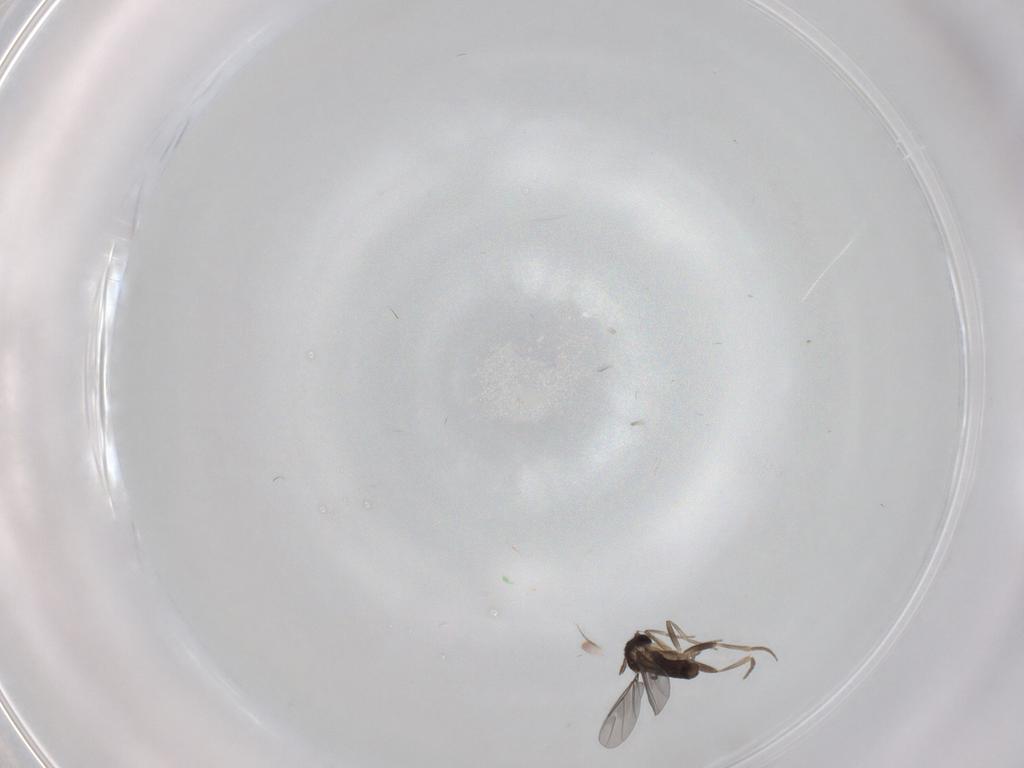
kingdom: Animalia
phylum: Arthropoda
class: Insecta
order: Diptera
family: Phoridae
